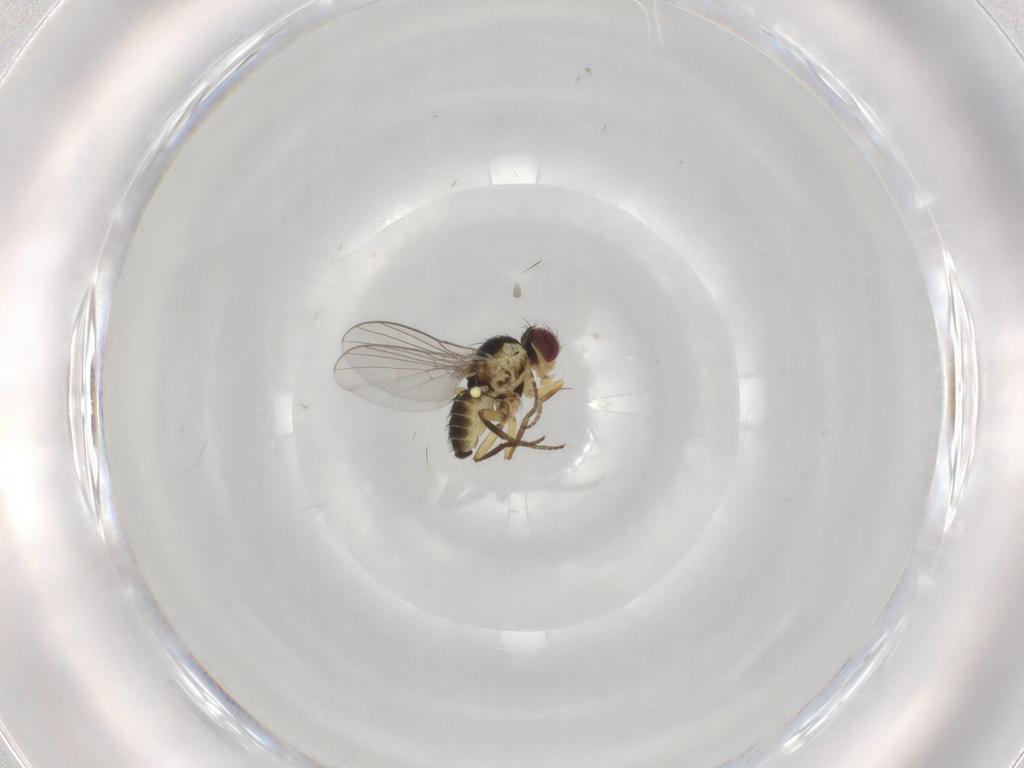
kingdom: Animalia
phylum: Arthropoda
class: Insecta
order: Diptera
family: Agromyzidae
